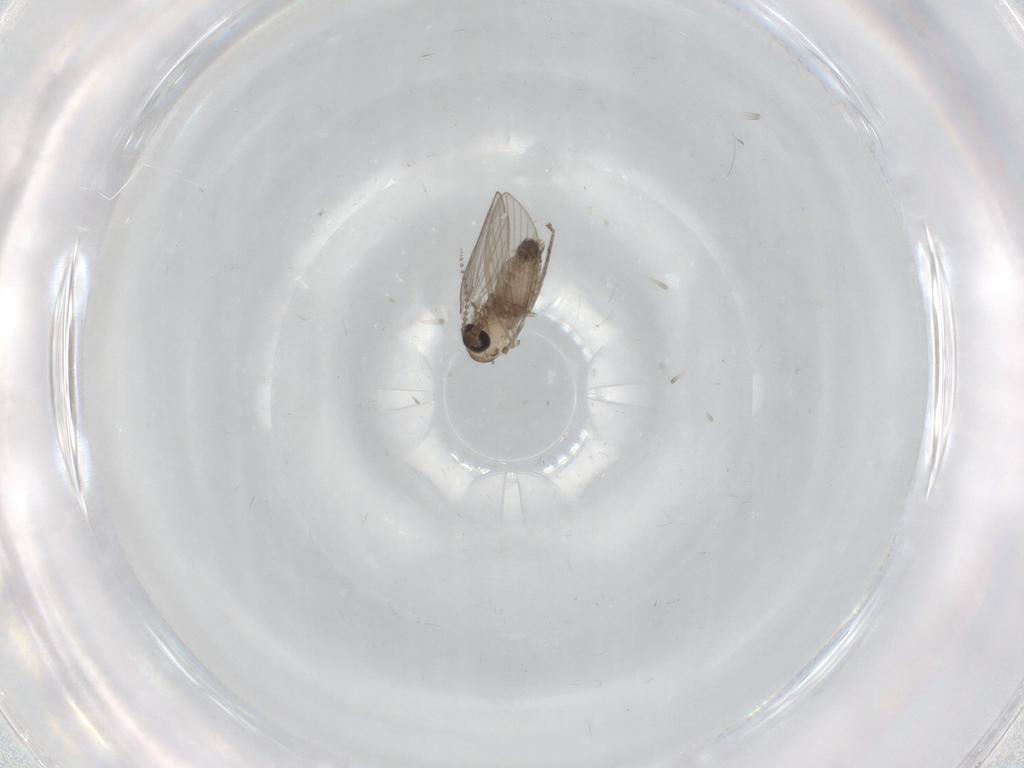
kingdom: Animalia
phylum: Arthropoda
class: Insecta
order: Diptera
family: Psychodidae
